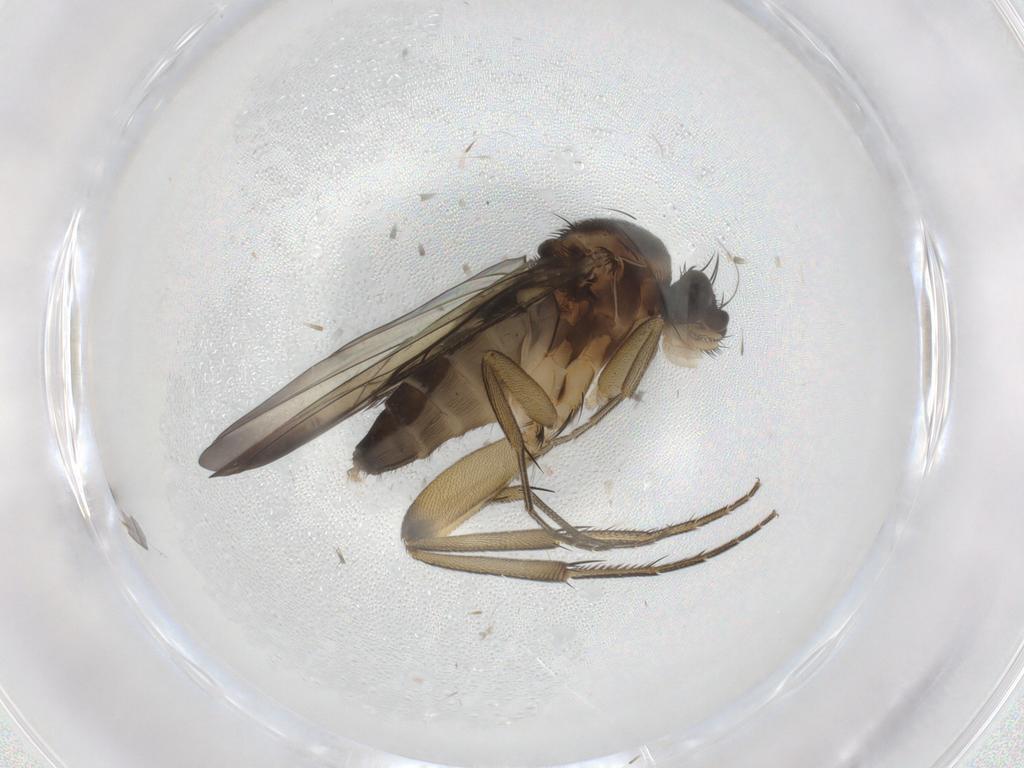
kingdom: Animalia
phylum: Arthropoda
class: Insecta
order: Diptera
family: Phoridae
